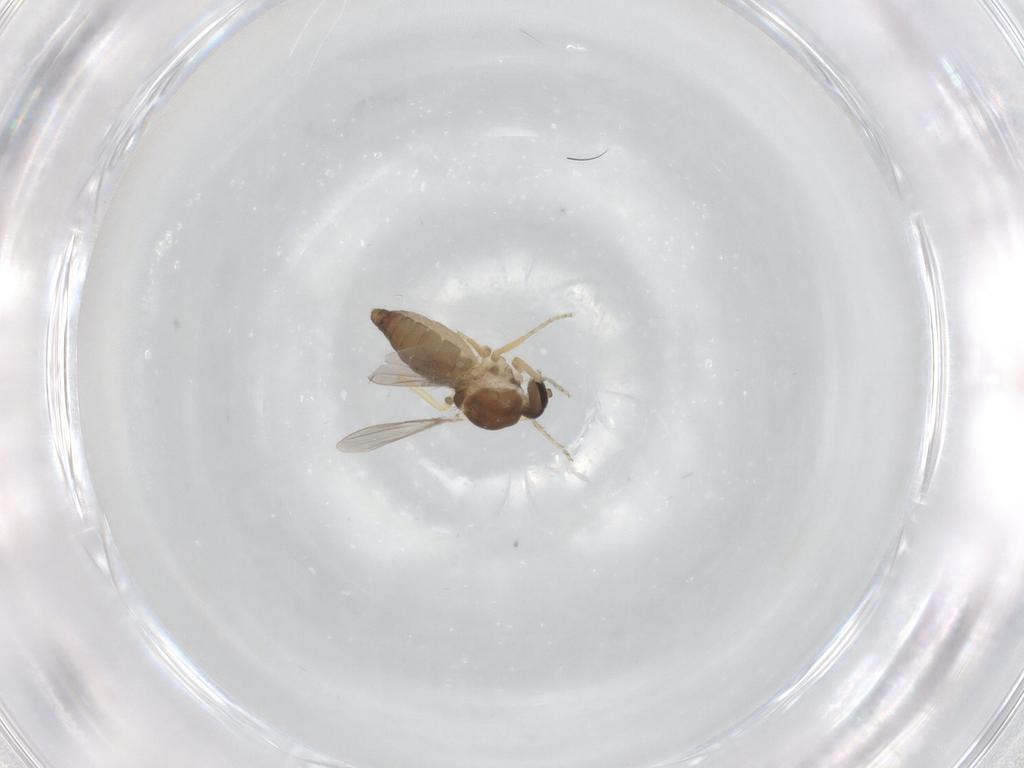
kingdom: Animalia
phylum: Arthropoda
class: Insecta
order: Diptera
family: Ceratopogonidae
